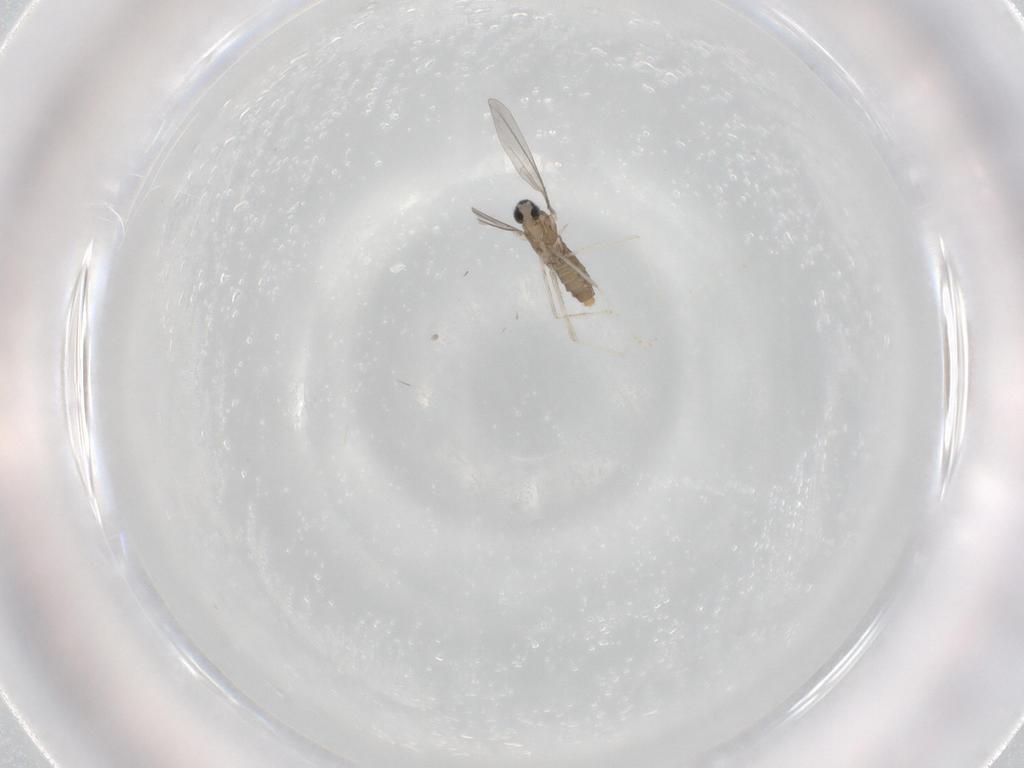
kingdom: Animalia
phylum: Arthropoda
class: Insecta
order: Diptera
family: Cecidomyiidae
